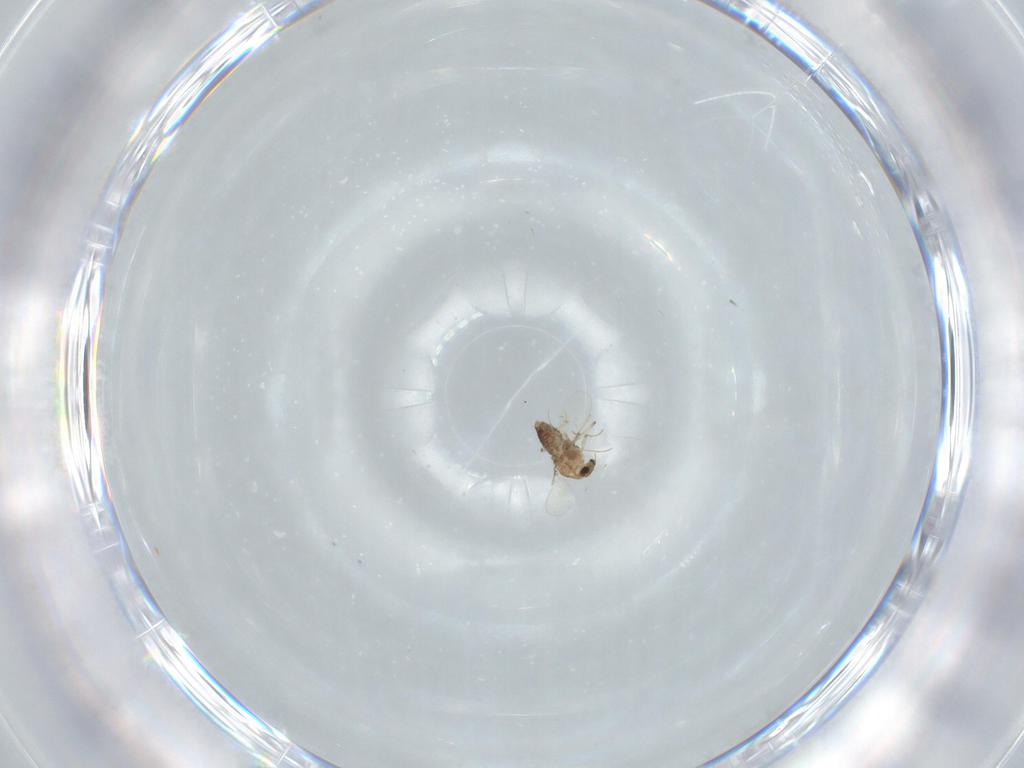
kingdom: Animalia
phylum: Arthropoda
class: Insecta
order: Diptera
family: Chironomidae
